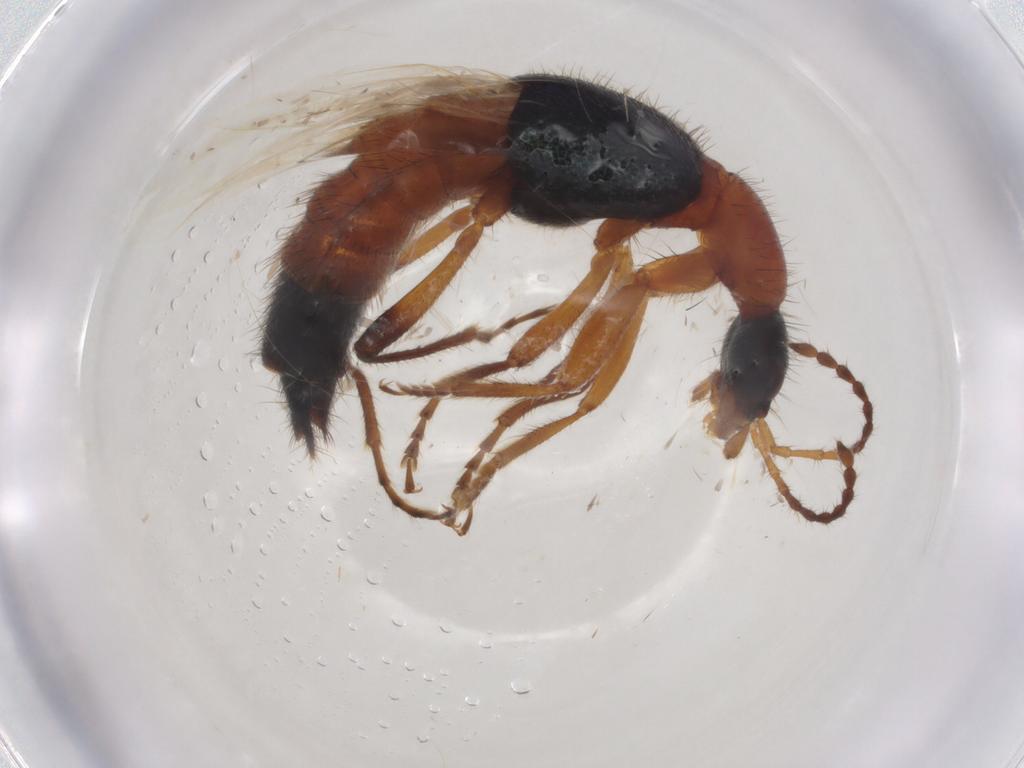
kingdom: Animalia
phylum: Arthropoda
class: Insecta
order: Coleoptera
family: Staphylinidae
